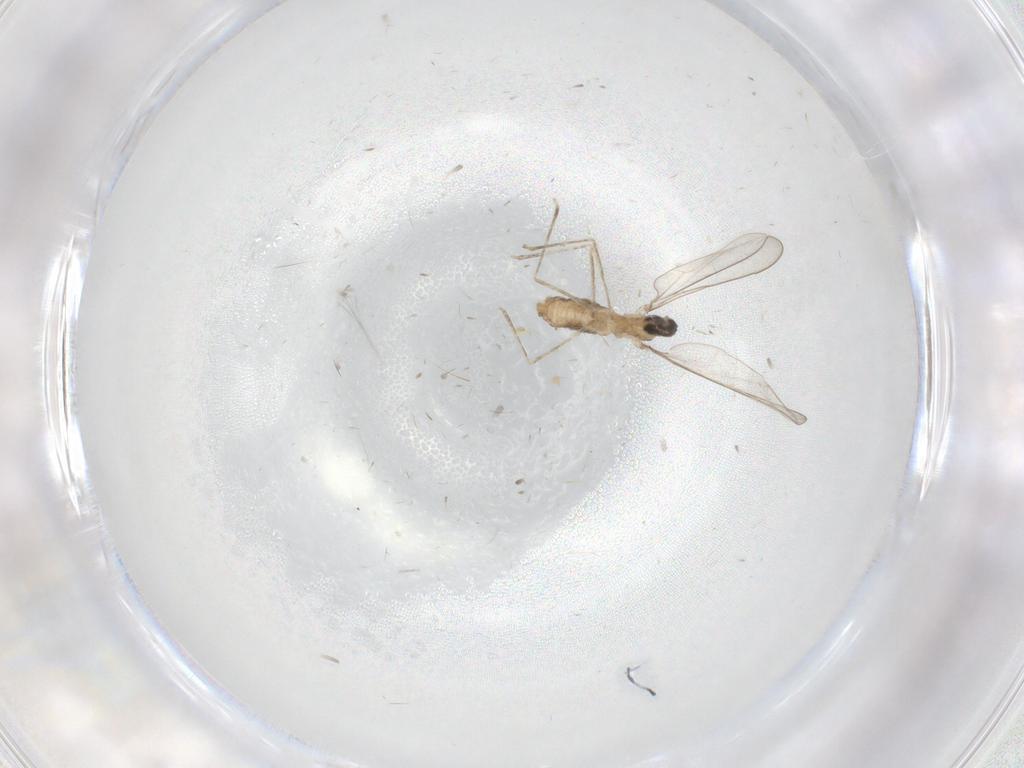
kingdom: Animalia
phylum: Arthropoda
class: Insecta
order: Diptera
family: Cecidomyiidae
